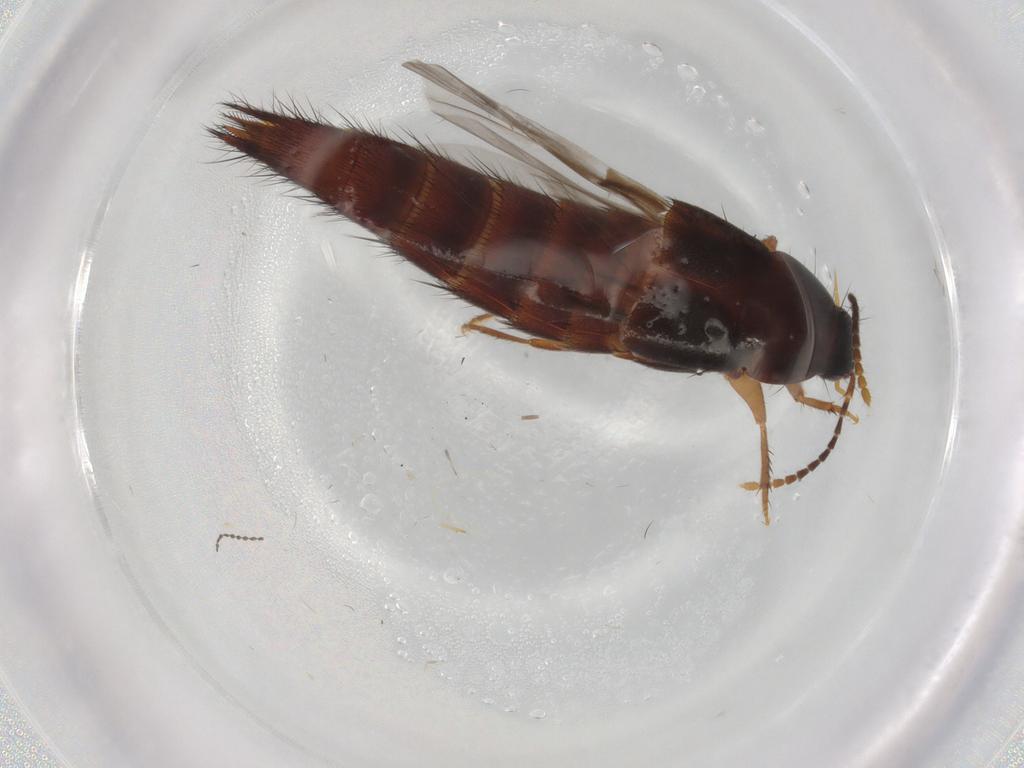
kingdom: Animalia
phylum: Arthropoda
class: Insecta
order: Coleoptera
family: Staphylinidae
